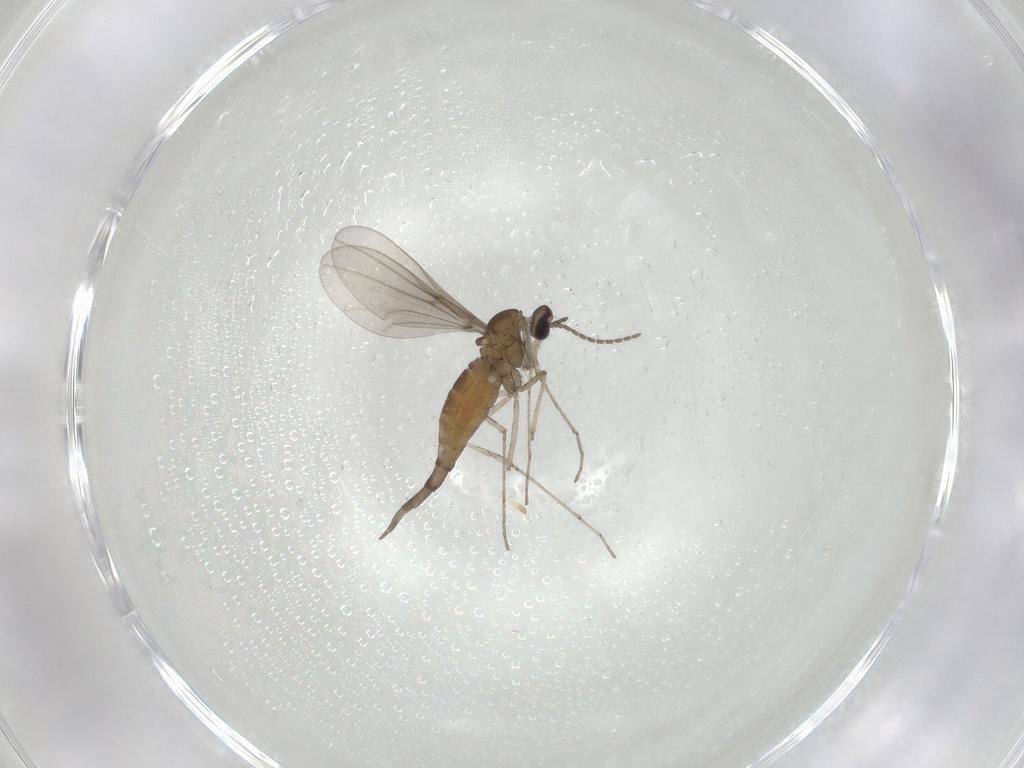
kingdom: Animalia
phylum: Arthropoda
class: Insecta
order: Diptera
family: Cecidomyiidae
